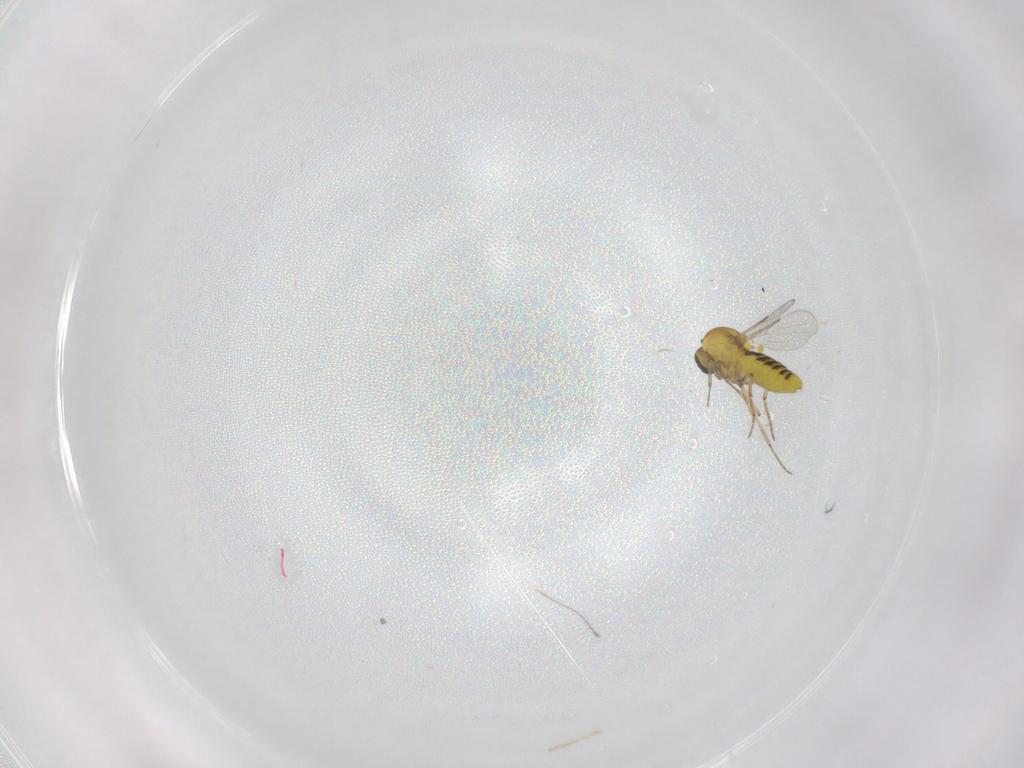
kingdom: Animalia
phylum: Arthropoda
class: Insecta
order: Diptera
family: Ceratopogonidae
